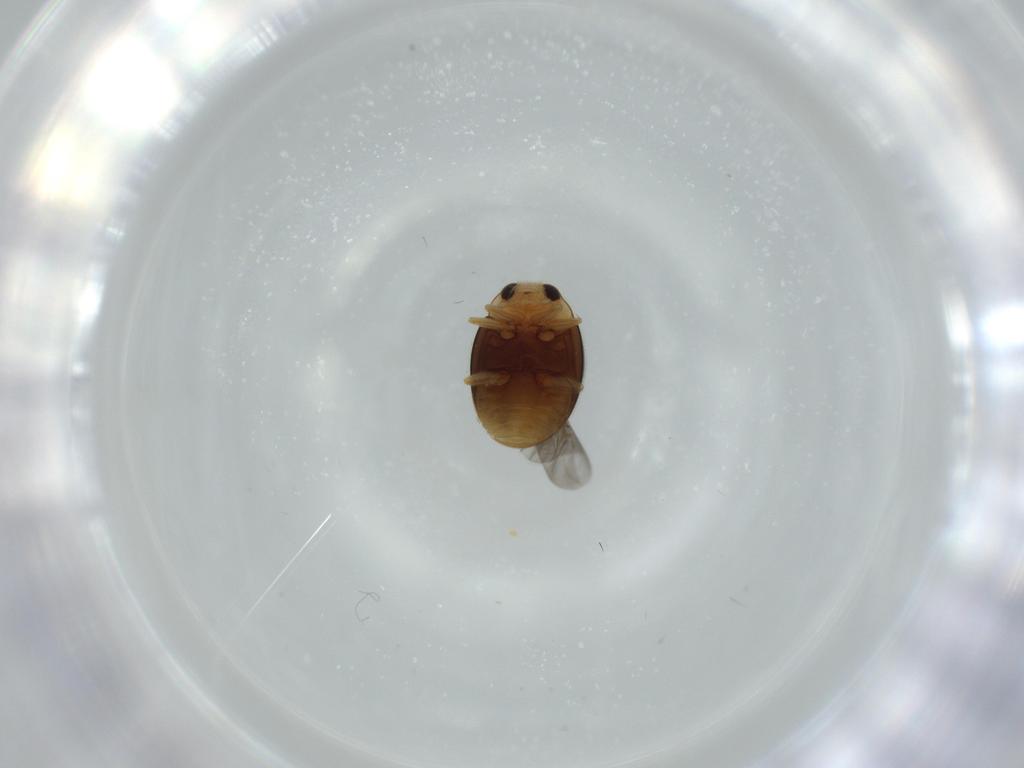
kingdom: Animalia
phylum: Arthropoda
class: Insecta
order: Coleoptera
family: Coccinellidae
